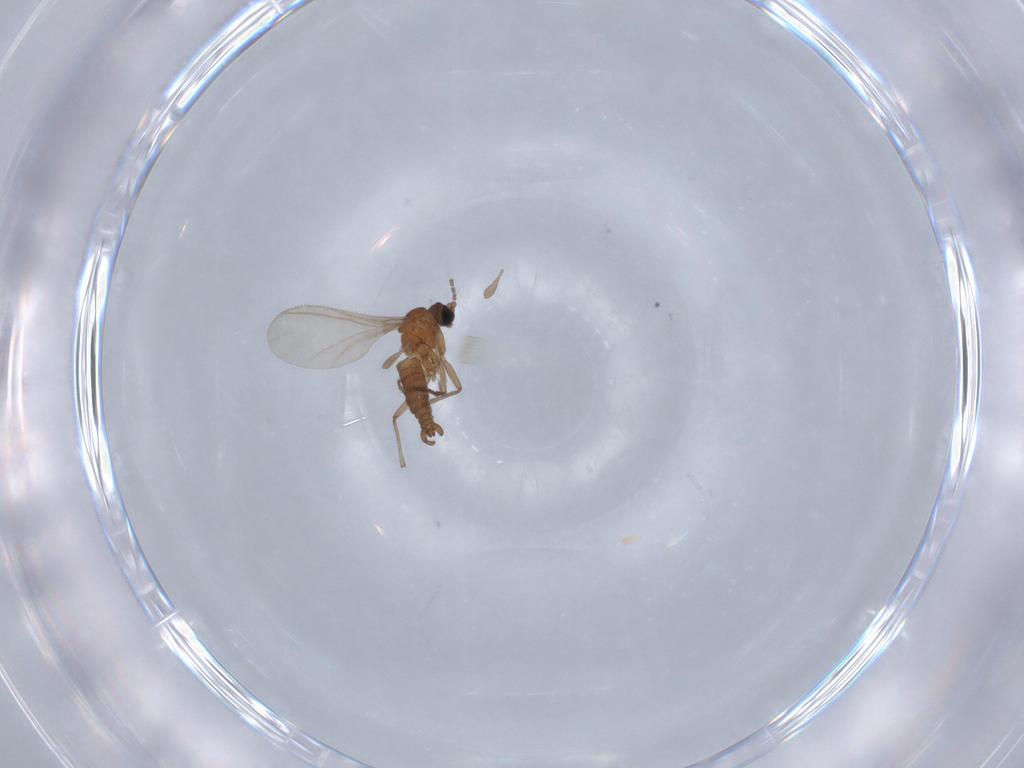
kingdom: Animalia
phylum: Arthropoda
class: Insecta
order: Diptera
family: Sciaridae
